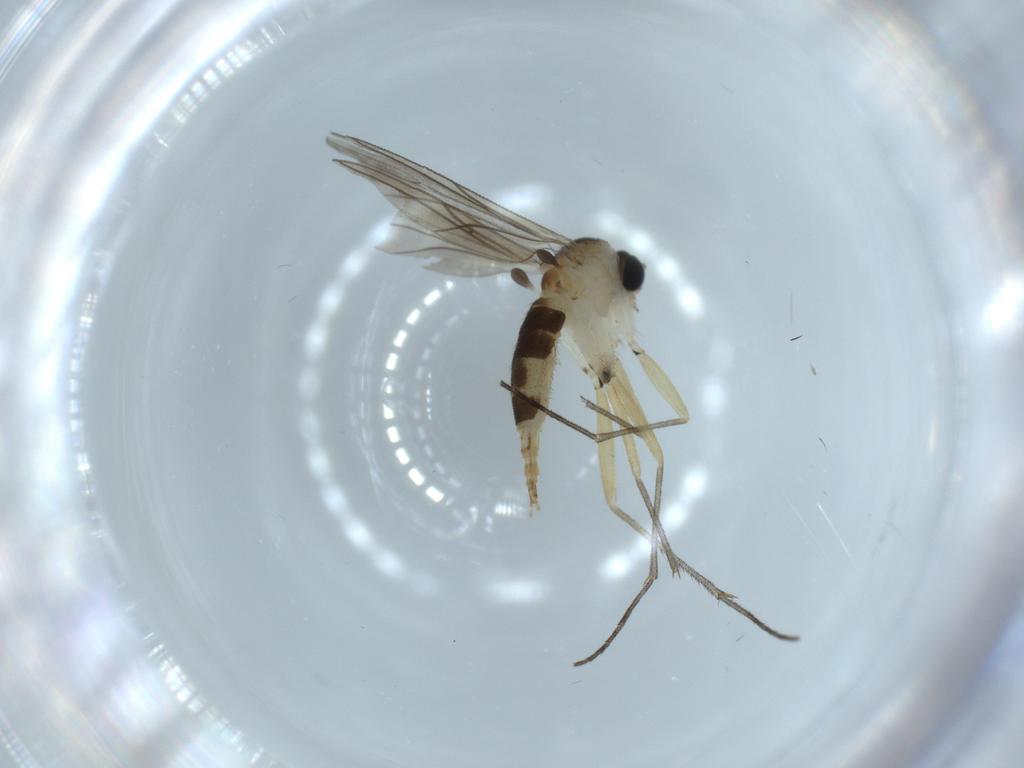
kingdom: Animalia
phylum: Arthropoda
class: Insecta
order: Diptera
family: Sciaridae
